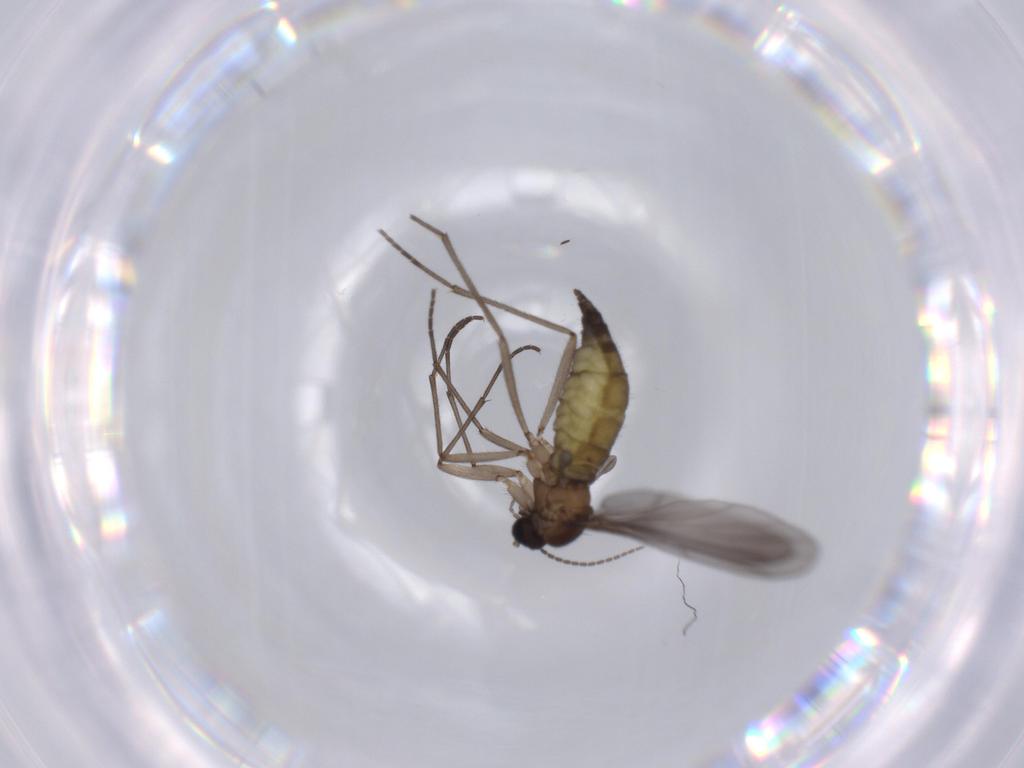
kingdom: Animalia
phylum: Arthropoda
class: Insecta
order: Diptera
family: Sciaridae
